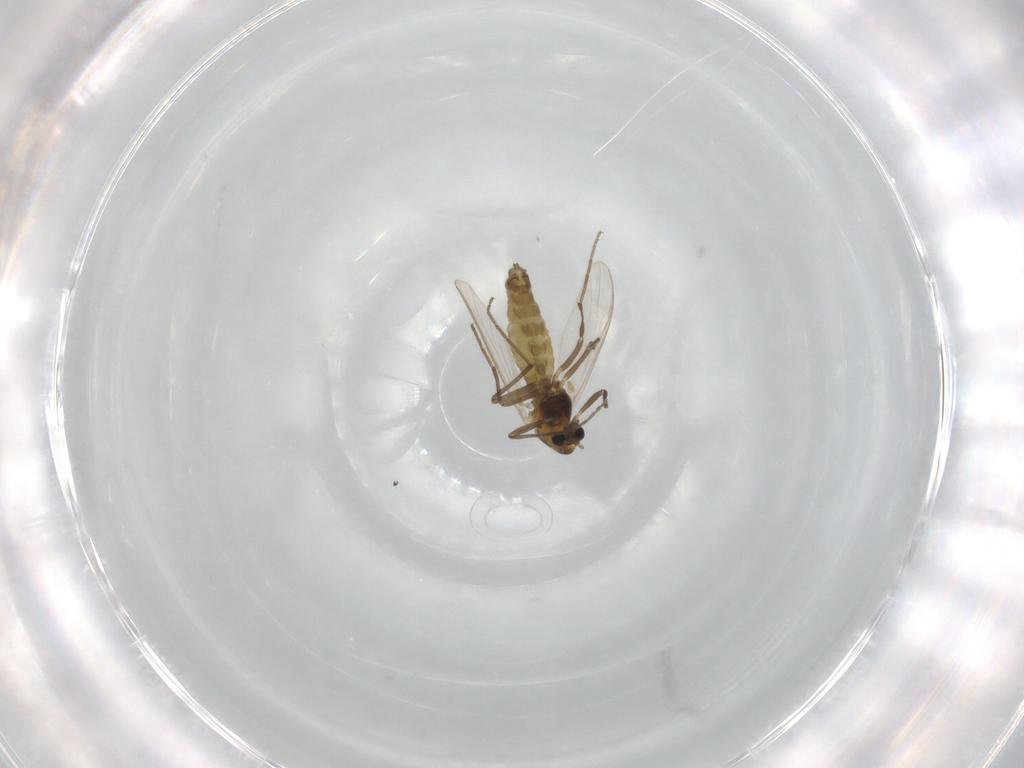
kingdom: Animalia
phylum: Arthropoda
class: Insecta
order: Diptera
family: Chironomidae
